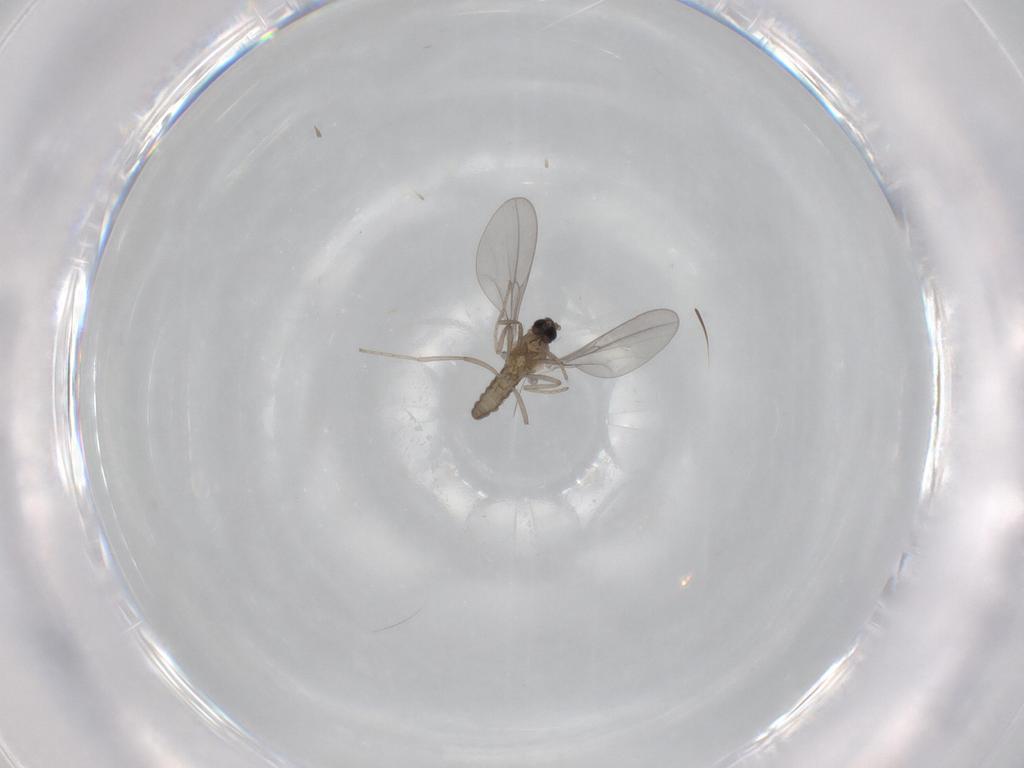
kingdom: Animalia
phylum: Arthropoda
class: Insecta
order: Diptera
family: Cecidomyiidae
